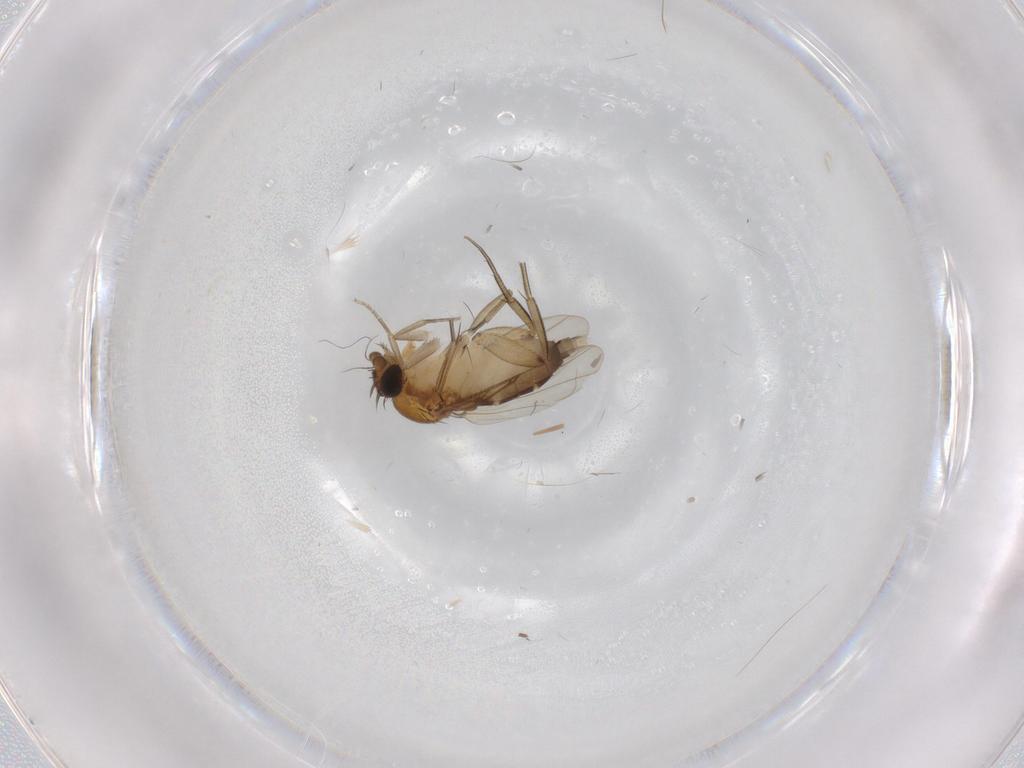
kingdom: Animalia
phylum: Arthropoda
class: Insecta
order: Diptera
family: Phoridae
